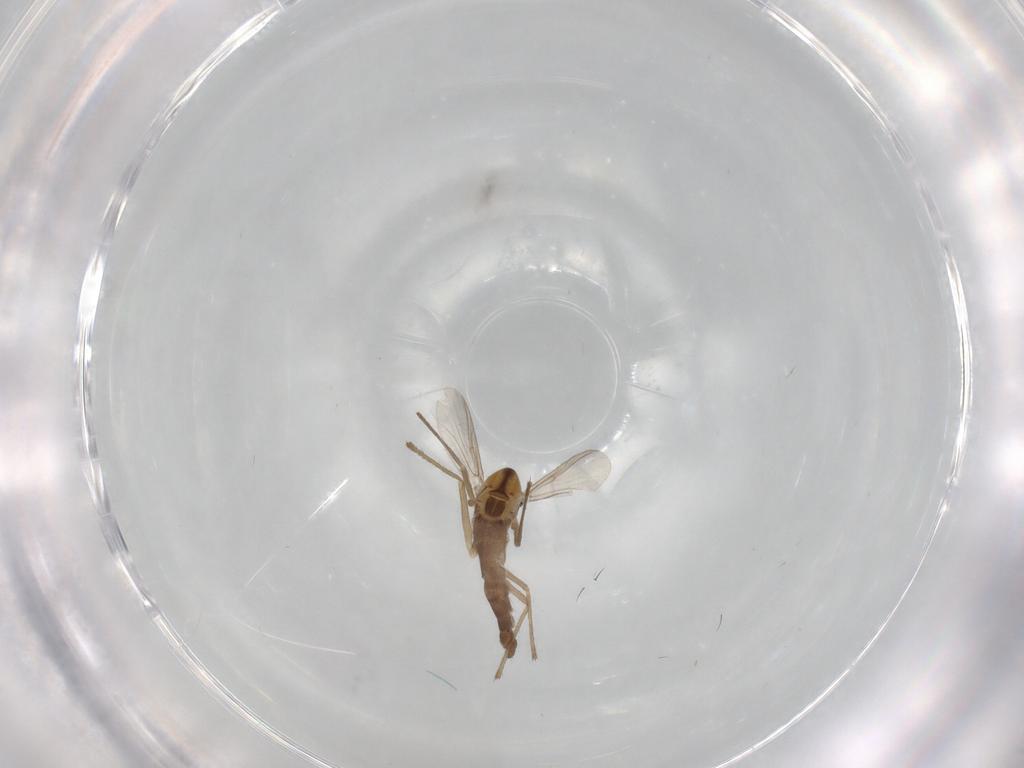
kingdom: Animalia
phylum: Arthropoda
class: Insecta
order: Diptera
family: Chironomidae
